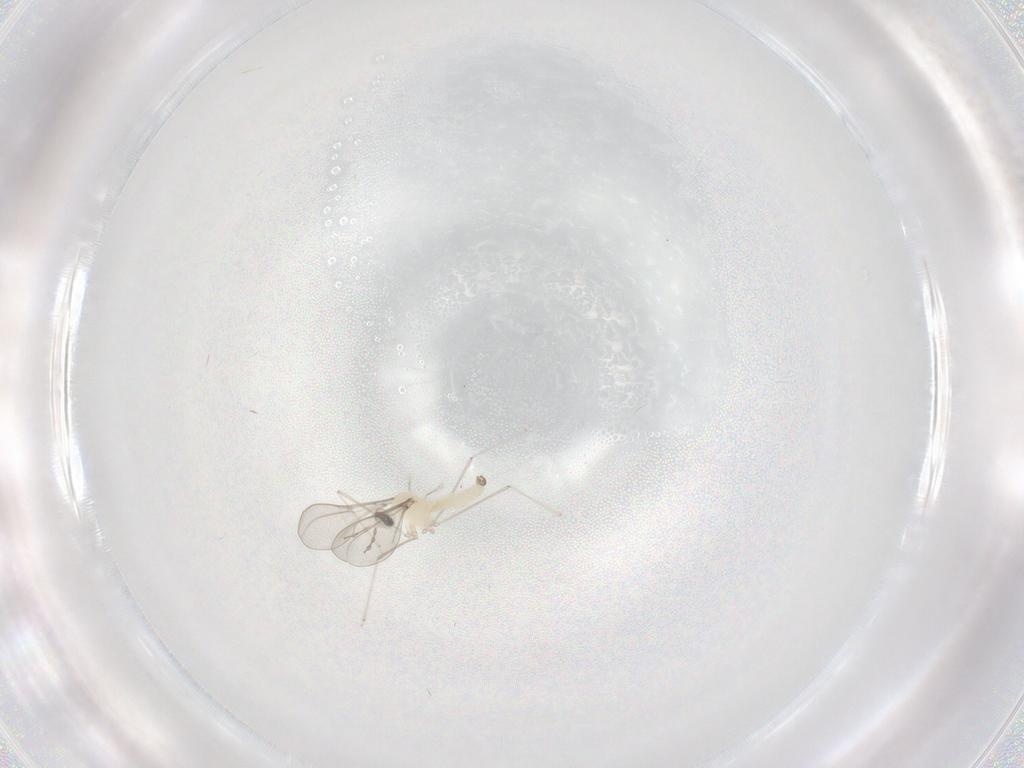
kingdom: Animalia
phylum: Arthropoda
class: Insecta
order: Diptera
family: Cecidomyiidae
